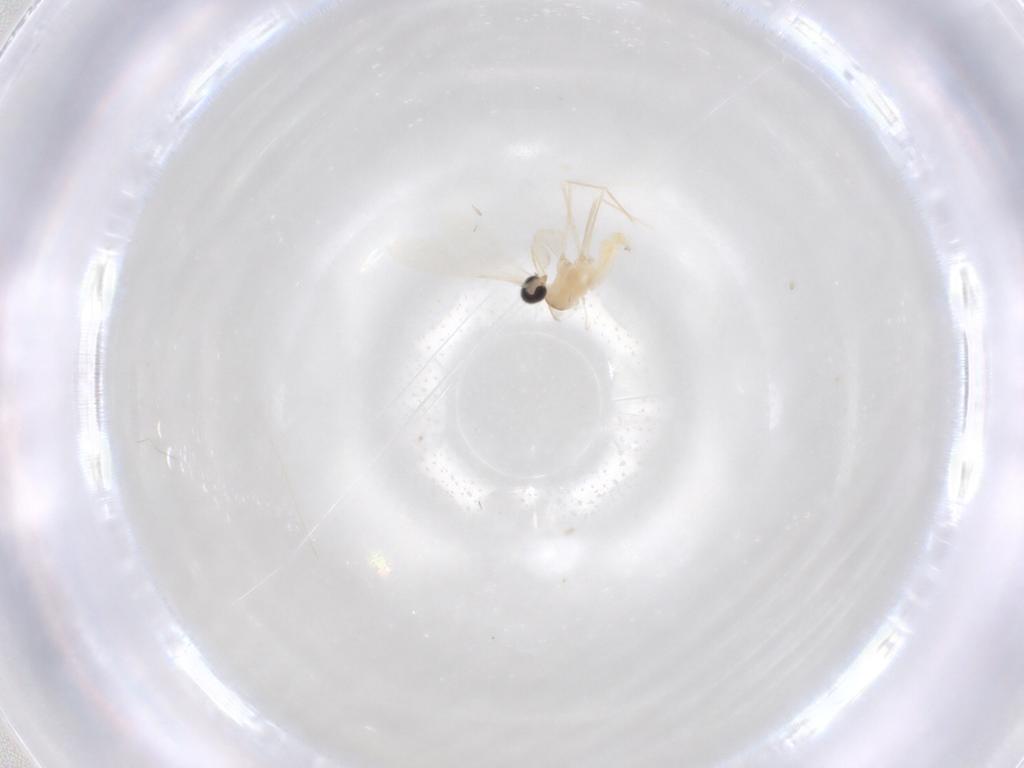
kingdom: Animalia
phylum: Arthropoda
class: Insecta
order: Diptera
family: Cecidomyiidae
